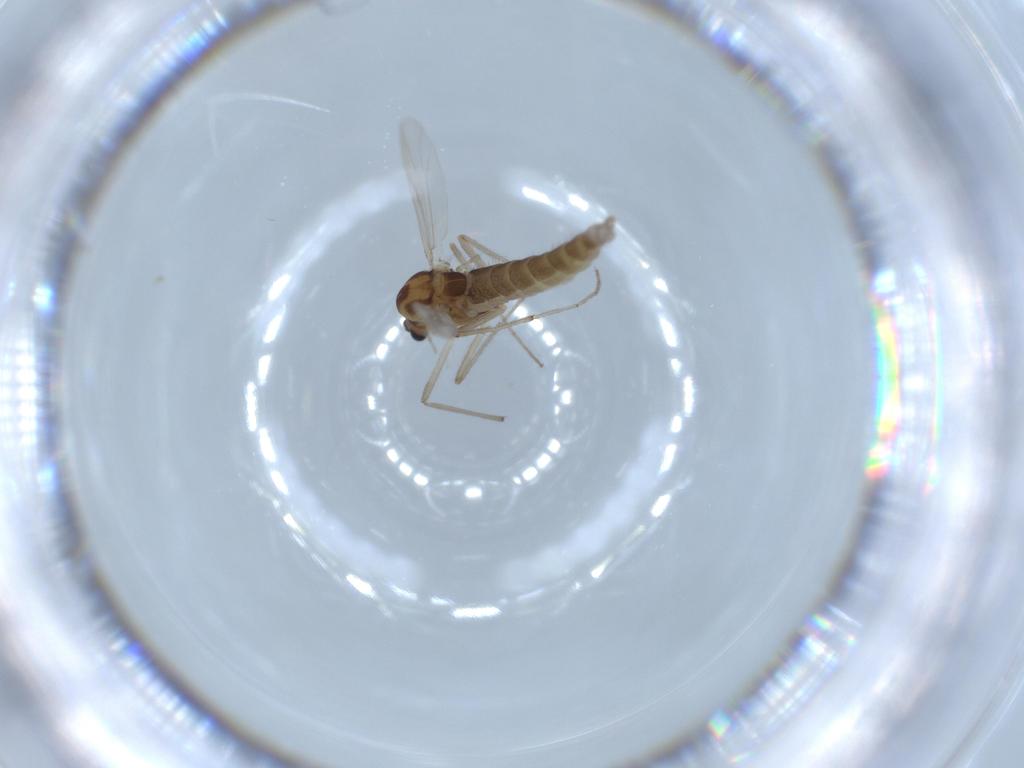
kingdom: Animalia
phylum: Arthropoda
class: Insecta
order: Diptera
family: Chironomidae
